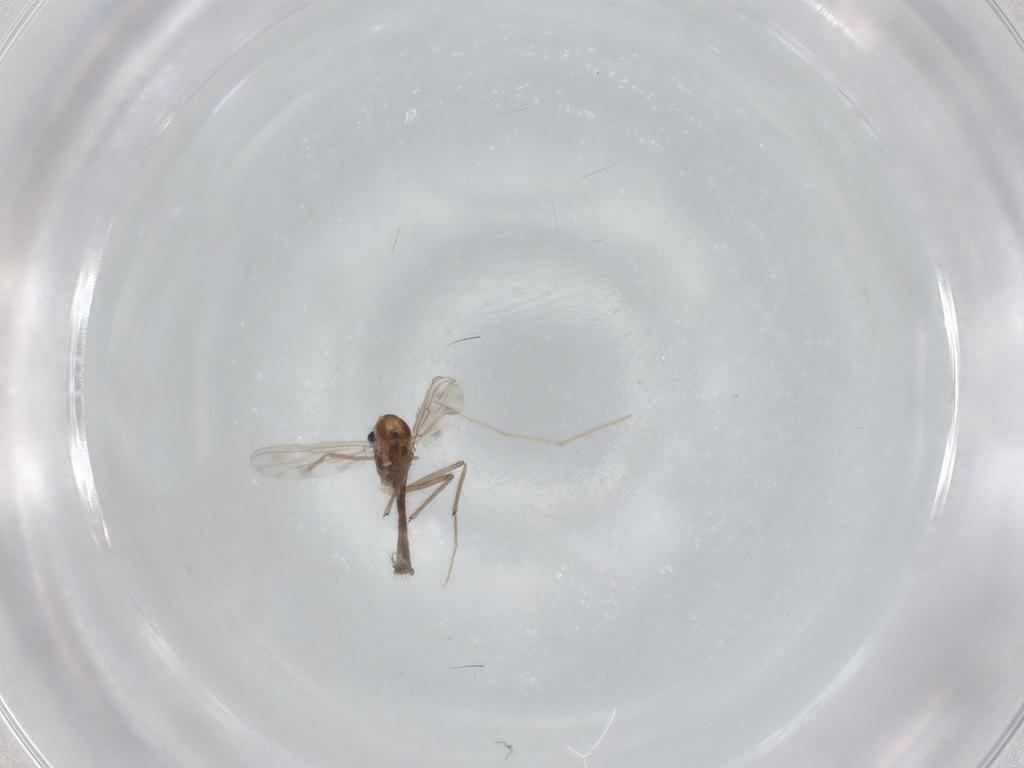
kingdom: Animalia
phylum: Arthropoda
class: Insecta
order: Diptera
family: Chironomidae
